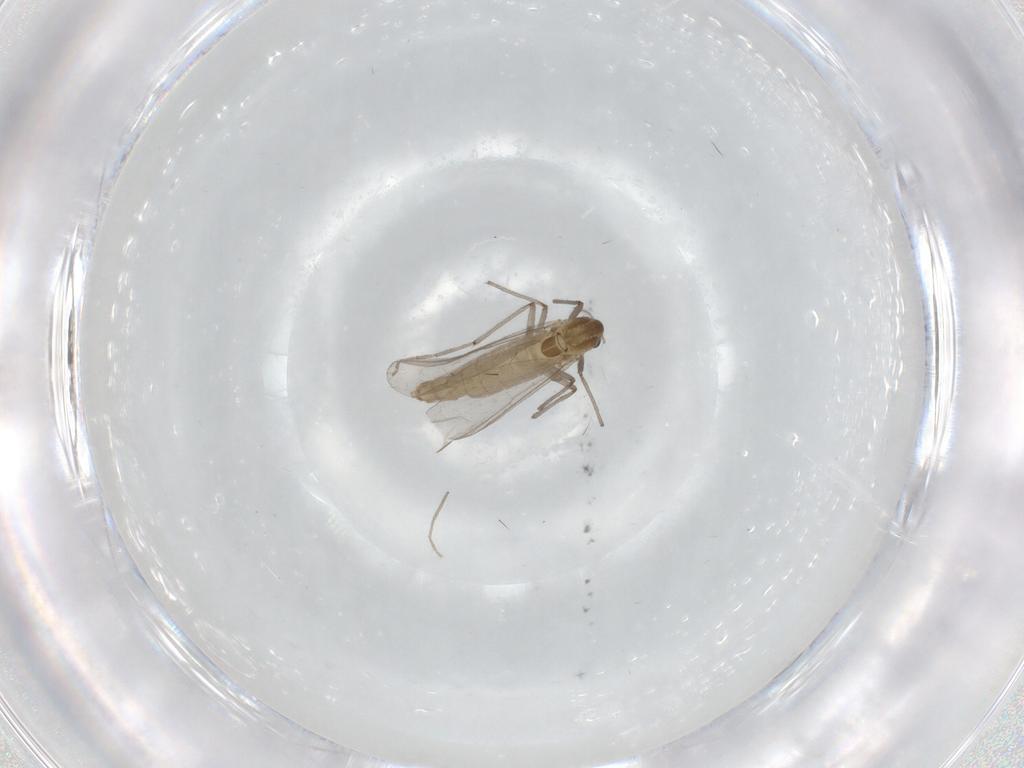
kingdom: Animalia
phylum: Arthropoda
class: Insecta
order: Diptera
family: Chironomidae
